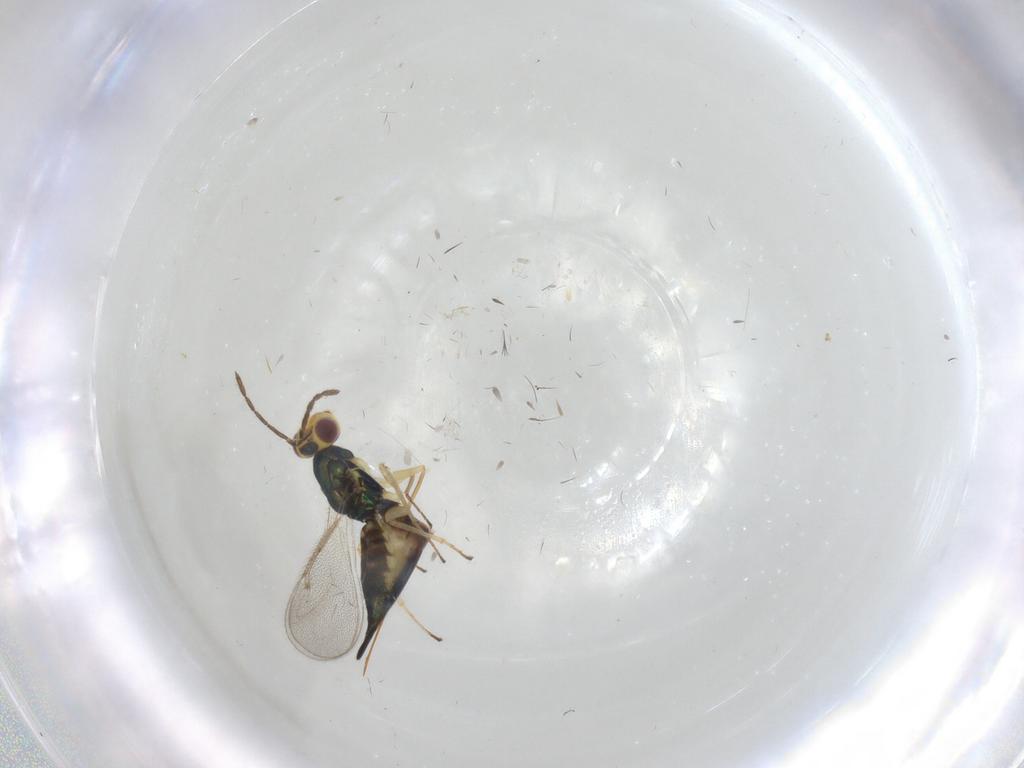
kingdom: Animalia
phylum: Arthropoda
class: Insecta
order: Hymenoptera
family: Eulophidae
